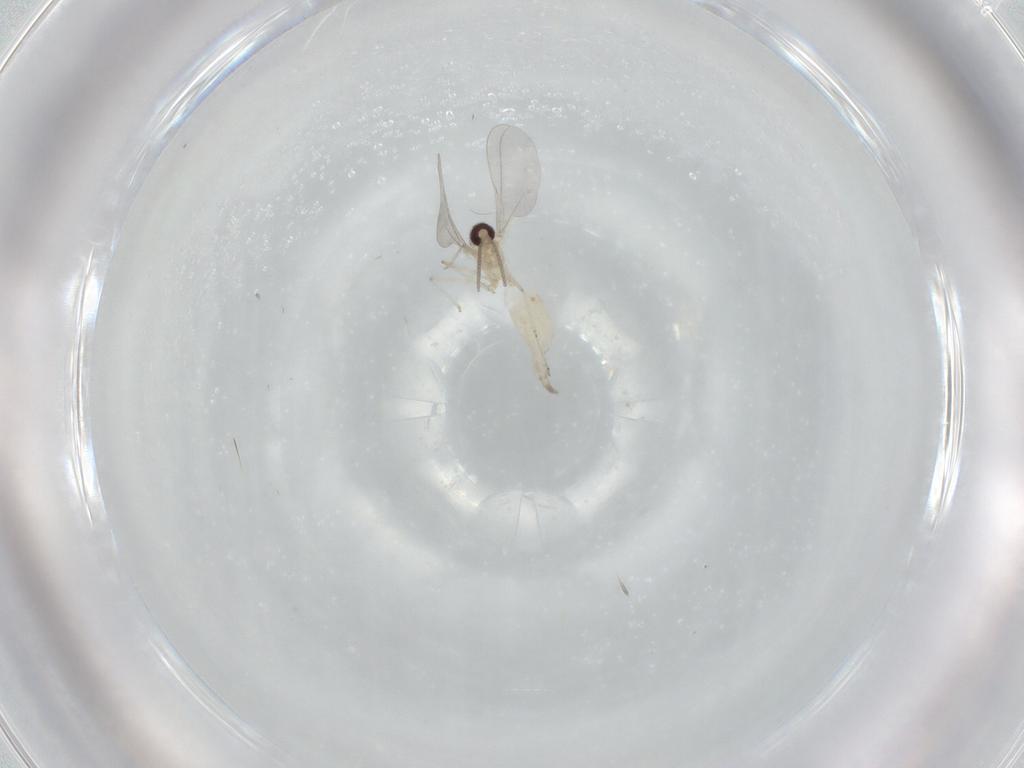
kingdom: Animalia
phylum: Arthropoda
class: Insecta
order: Diptera
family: Cecidomyiidae
